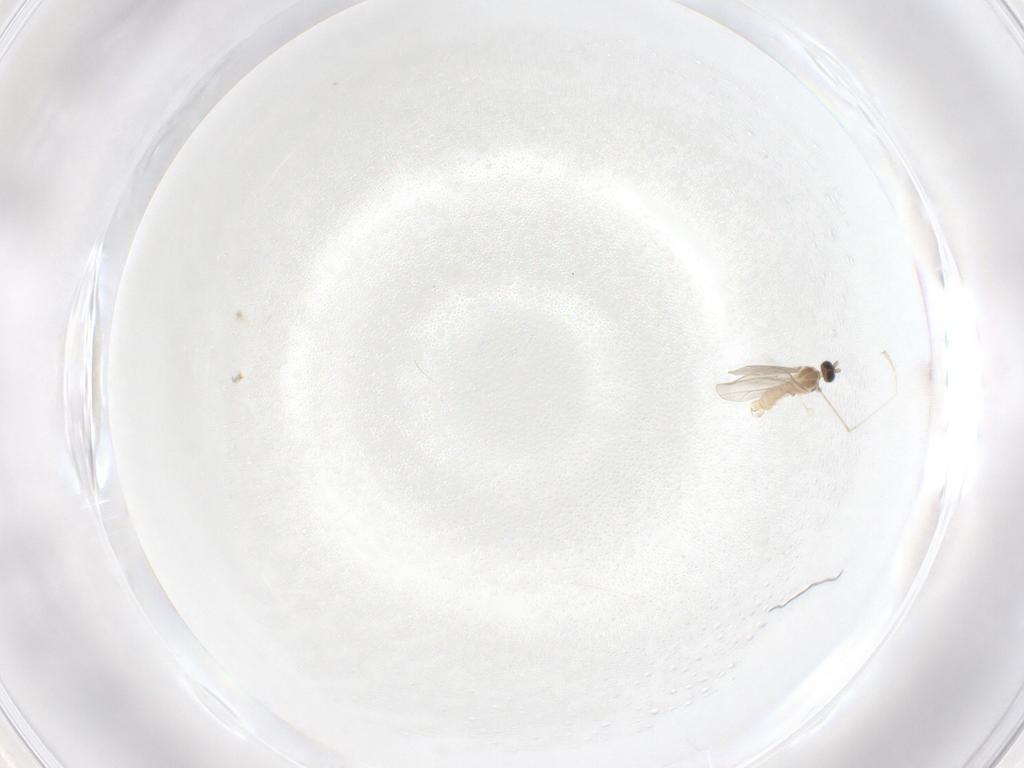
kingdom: Animalia
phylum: Arthropoda
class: Insecta
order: Diptera
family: Cecidomyiidae
